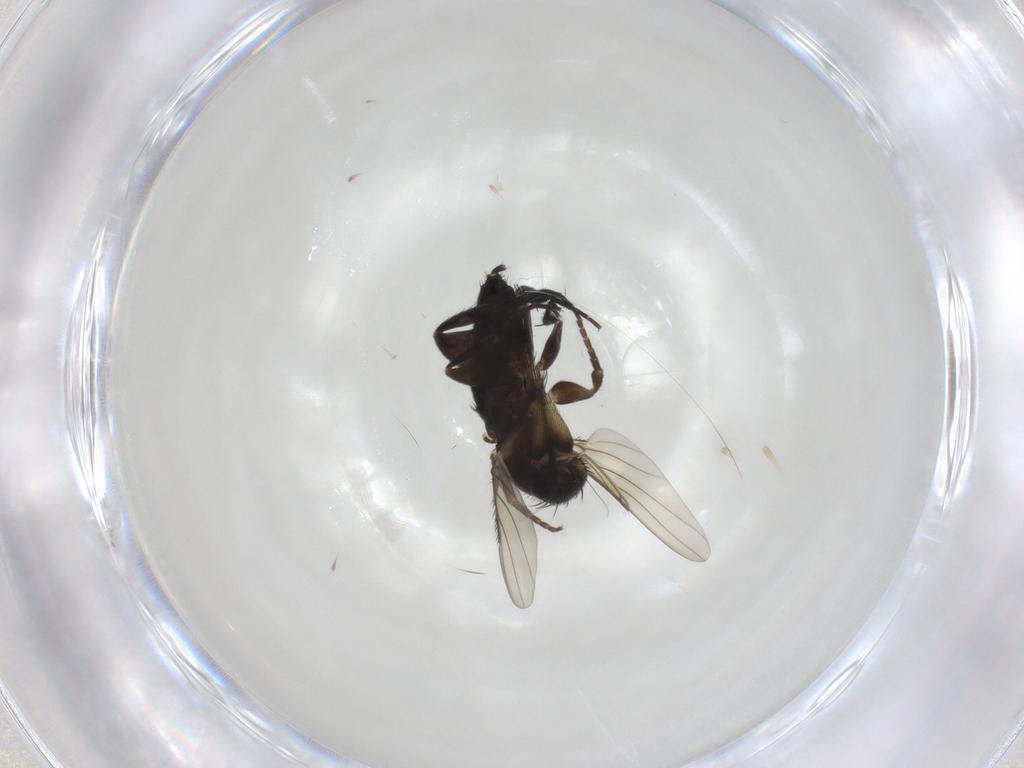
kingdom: Animalia
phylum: Arthropoda
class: Insecta
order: Diptera
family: Phoridae
